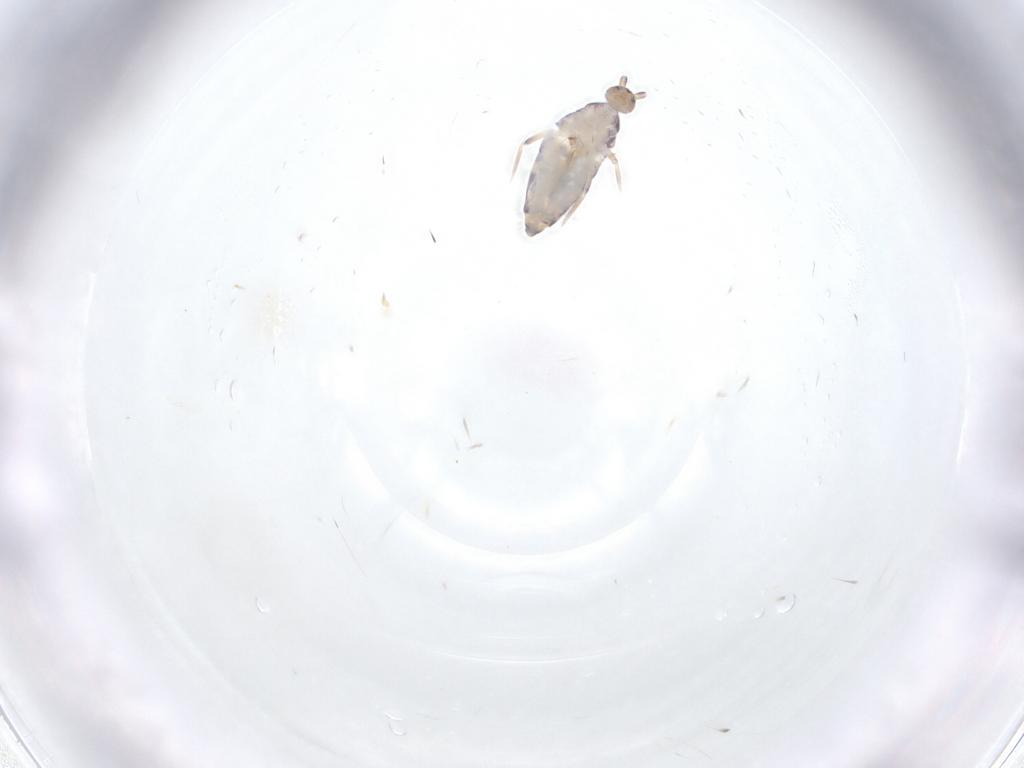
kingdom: Animalia
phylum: Arthropoda
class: Collembola
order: Entomobryomorpha
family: Entomobryidae
